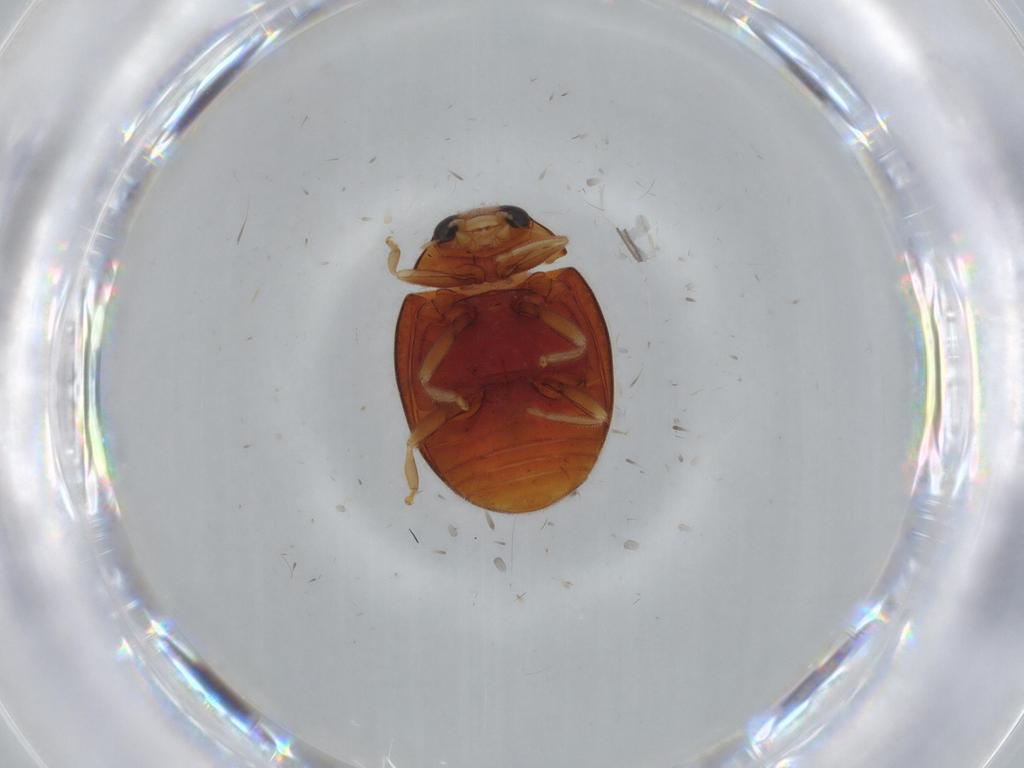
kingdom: Animalia
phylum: Arthropoda
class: Insecta
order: Coleoptera
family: Coccinellidae
